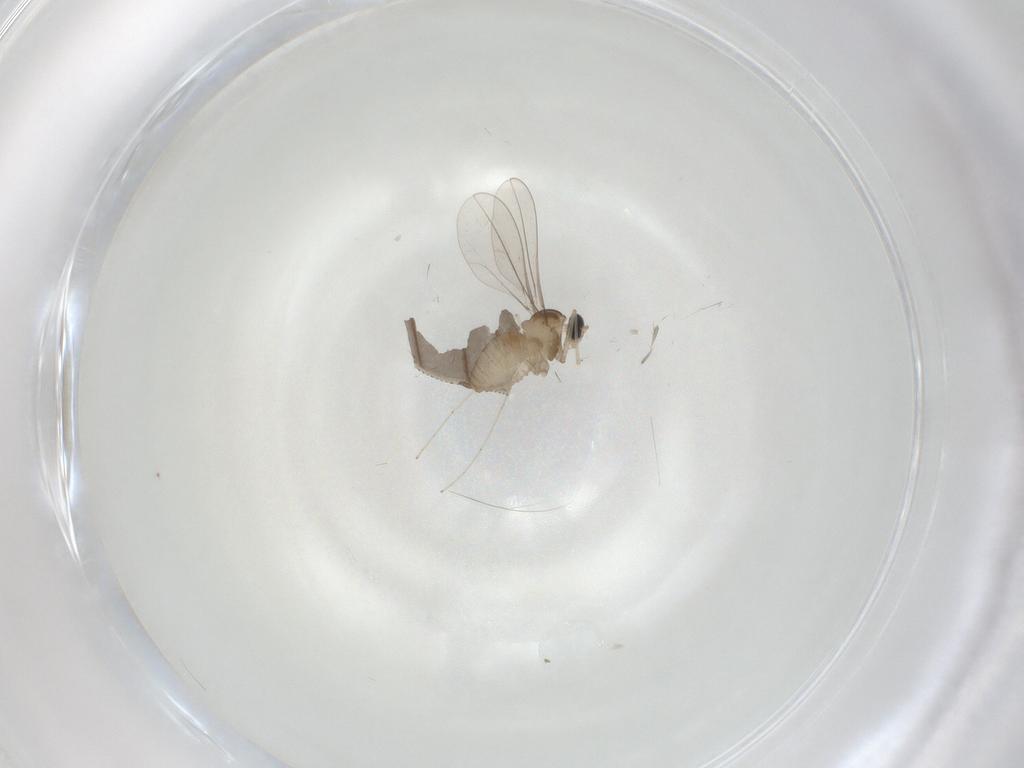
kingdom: Animalia
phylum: Arthropoda
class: Insecta
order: Diptera
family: Cecidomyiidae
